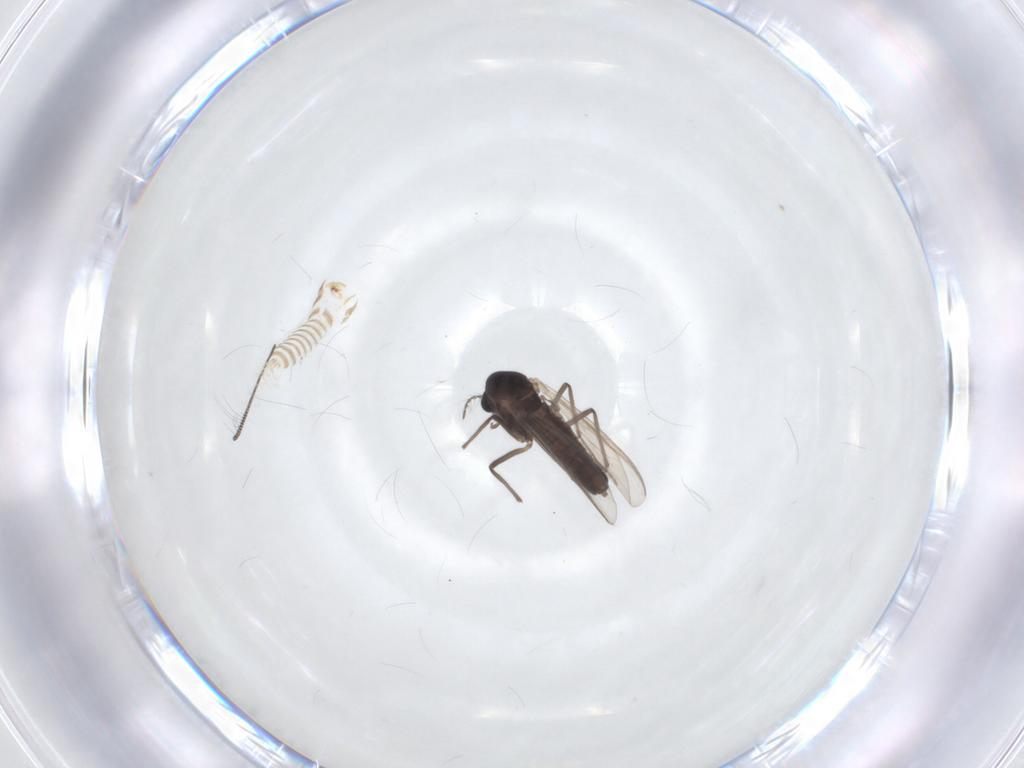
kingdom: Animalia
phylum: Arthropoda
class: Insecta
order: Diptera
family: Chironomidae
